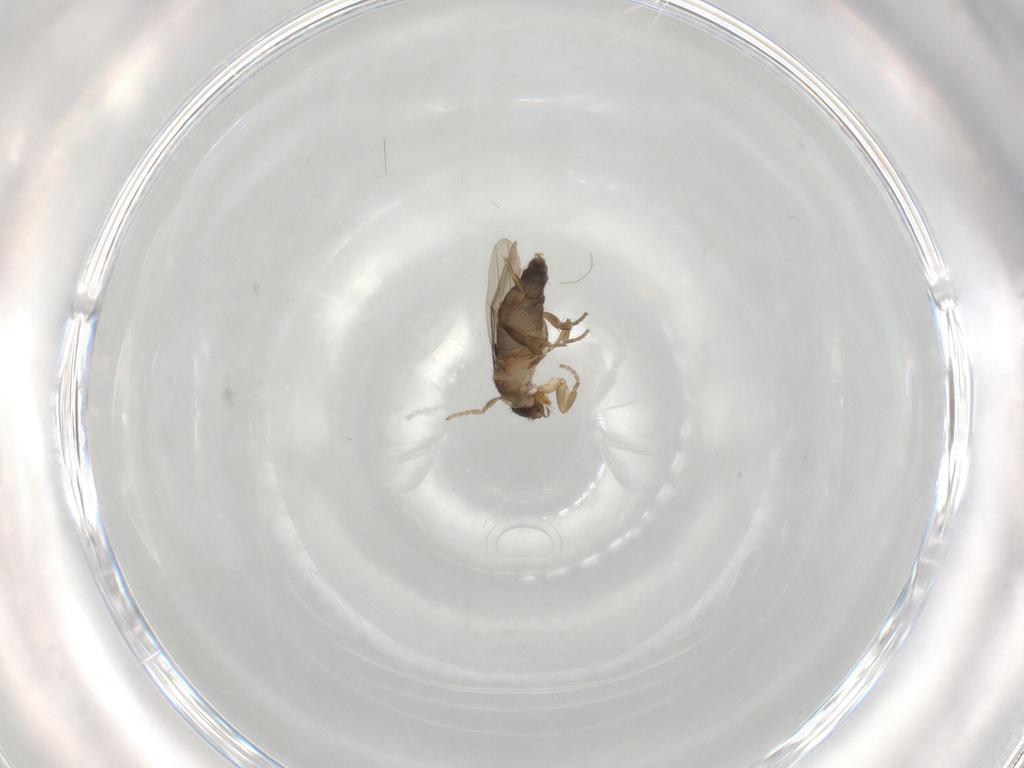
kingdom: Animalia
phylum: Arthropoda
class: Insecta
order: Diptera
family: Phoridae
